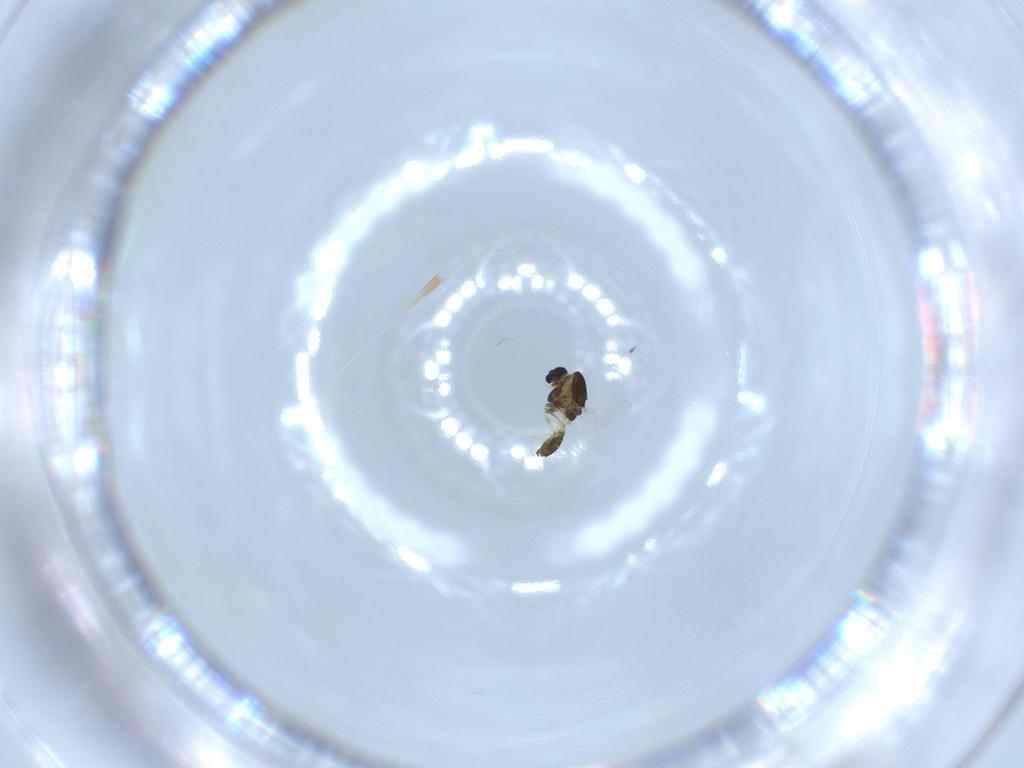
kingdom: Animalia
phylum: Arthropoda
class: Insecta
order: Diptera
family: Chironomidae
